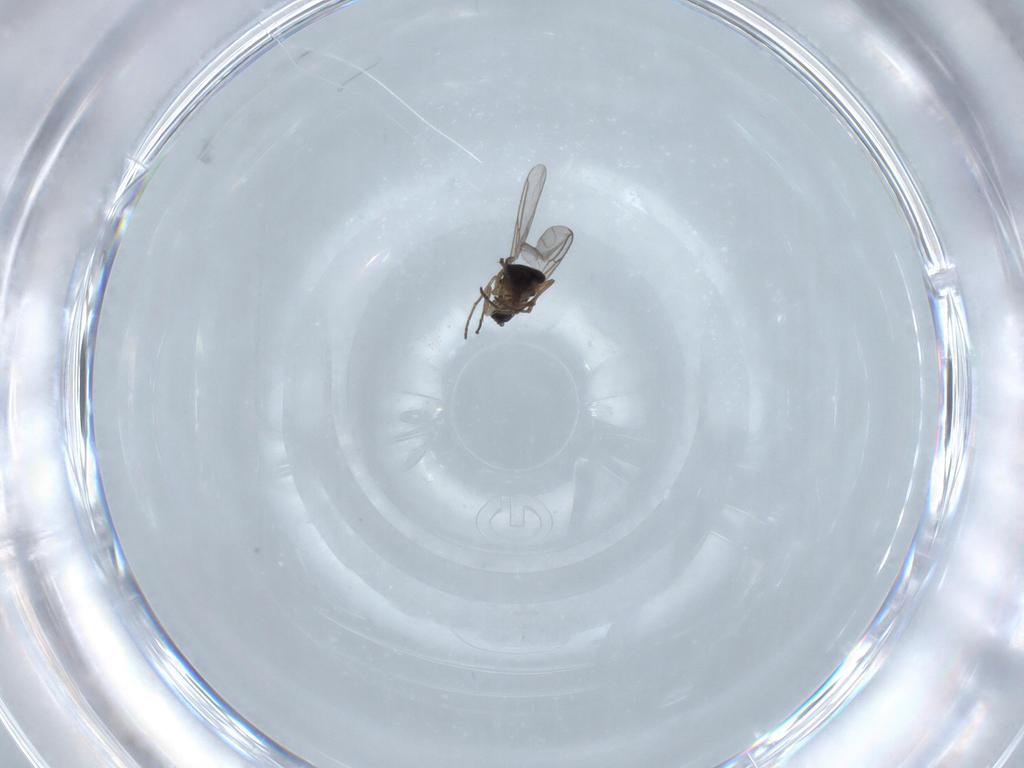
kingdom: Animalia
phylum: Arthropoda
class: Insecta
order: Diptera
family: Sciaridae
